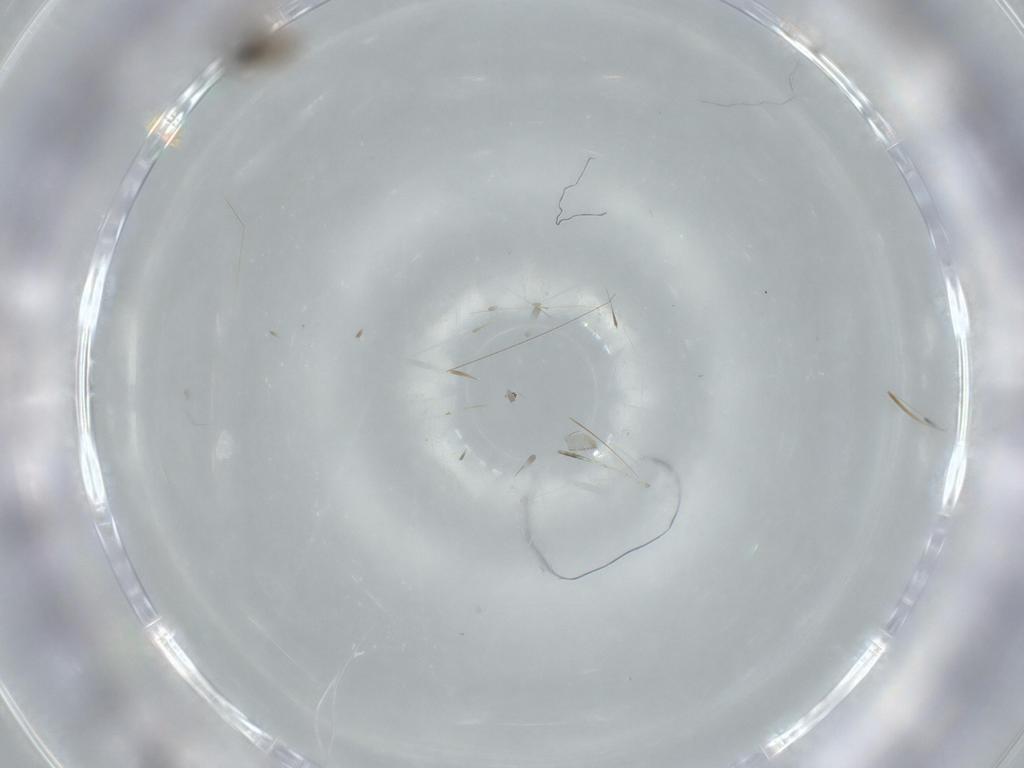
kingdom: Animalia
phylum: Arthropoda
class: Insecta
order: Diptera
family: Cecidomyiidae
